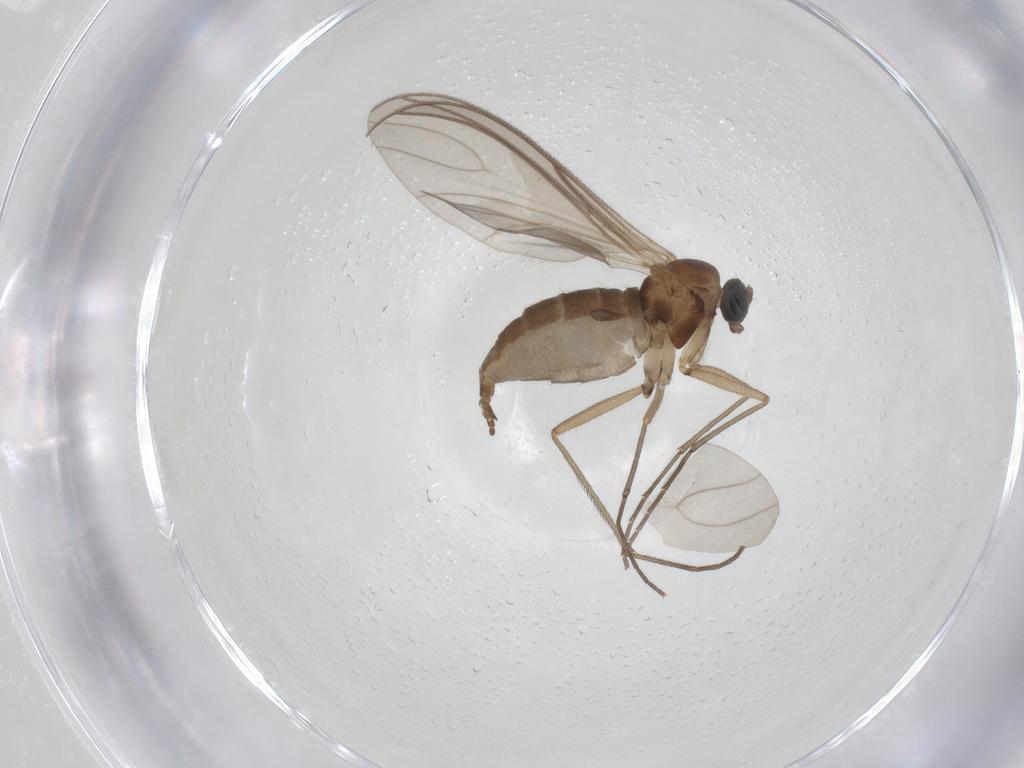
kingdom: Animalia
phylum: Arthropoda
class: Insecta
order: Diptera
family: Sciaridae
